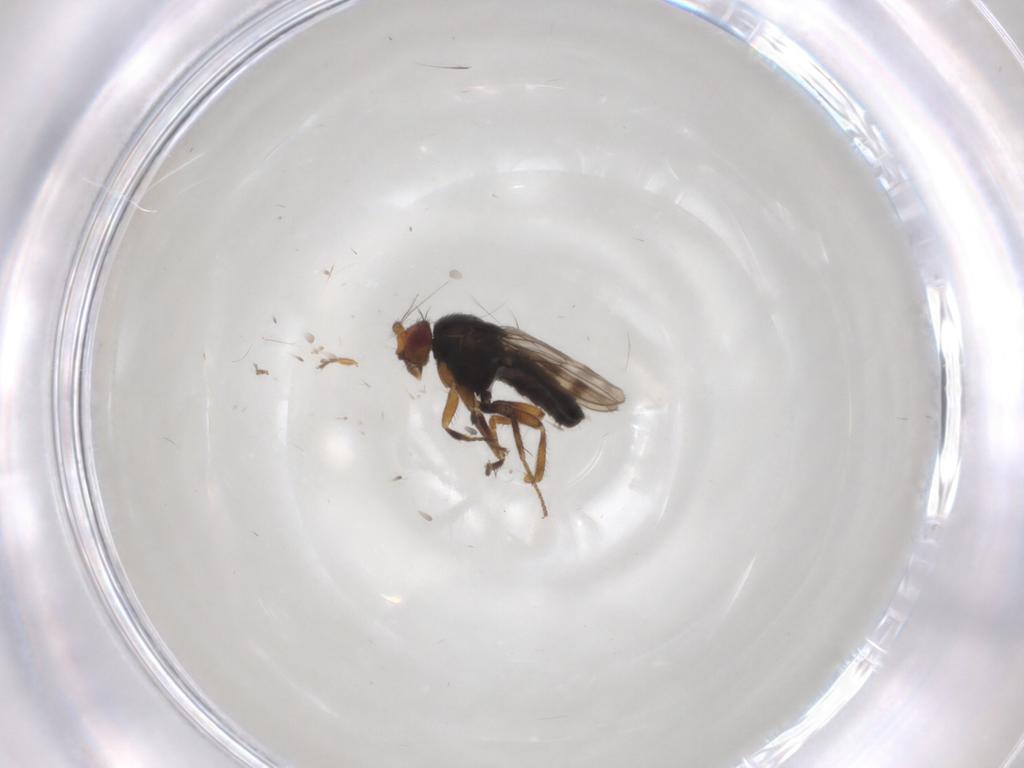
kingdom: Animalia
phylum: Arthropoda
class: Insecta
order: Diptera
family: Sphaeroceridae
